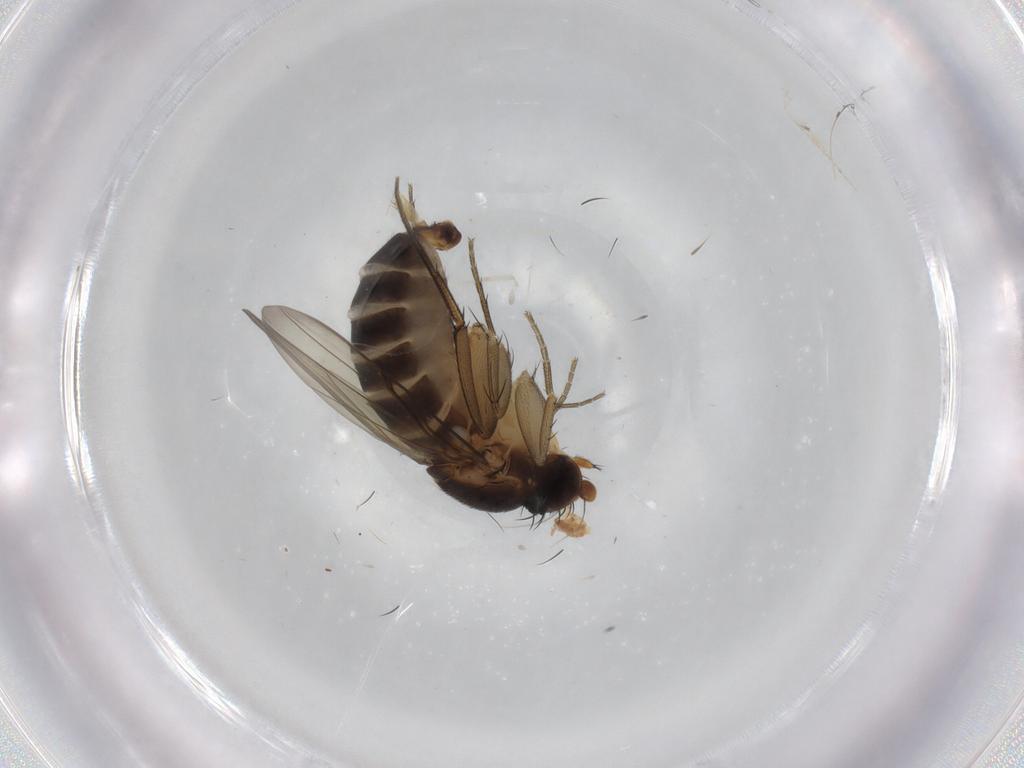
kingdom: Animalia
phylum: Arthropoda
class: Insecta
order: Diptera
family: Phoridae
